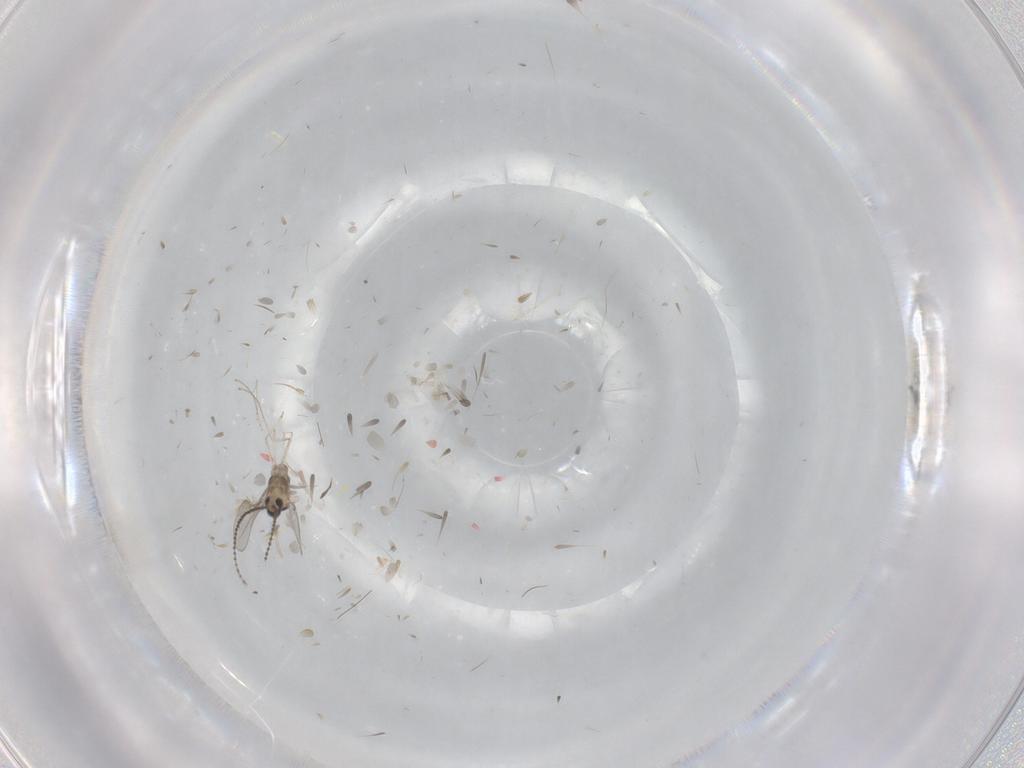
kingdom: Animalia
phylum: Arthropoda
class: Insecta
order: Diptera
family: Chironomidae
